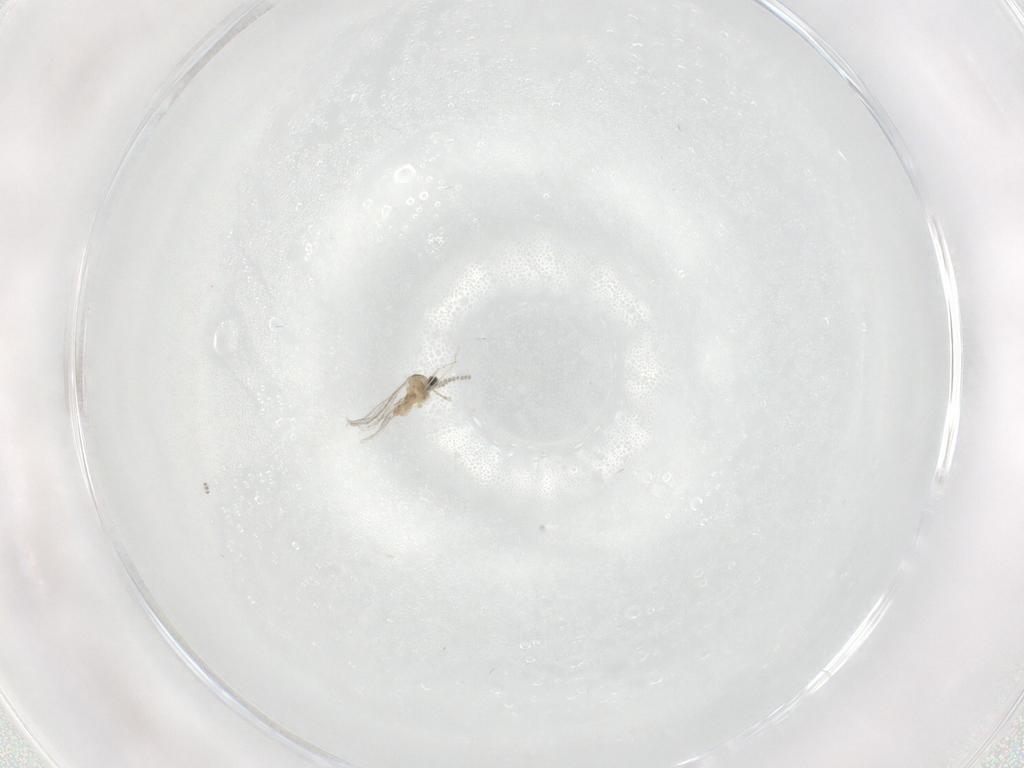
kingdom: Animalia
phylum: Arthropoda
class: Insecta
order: Diptera
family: Cecidomyiidae
